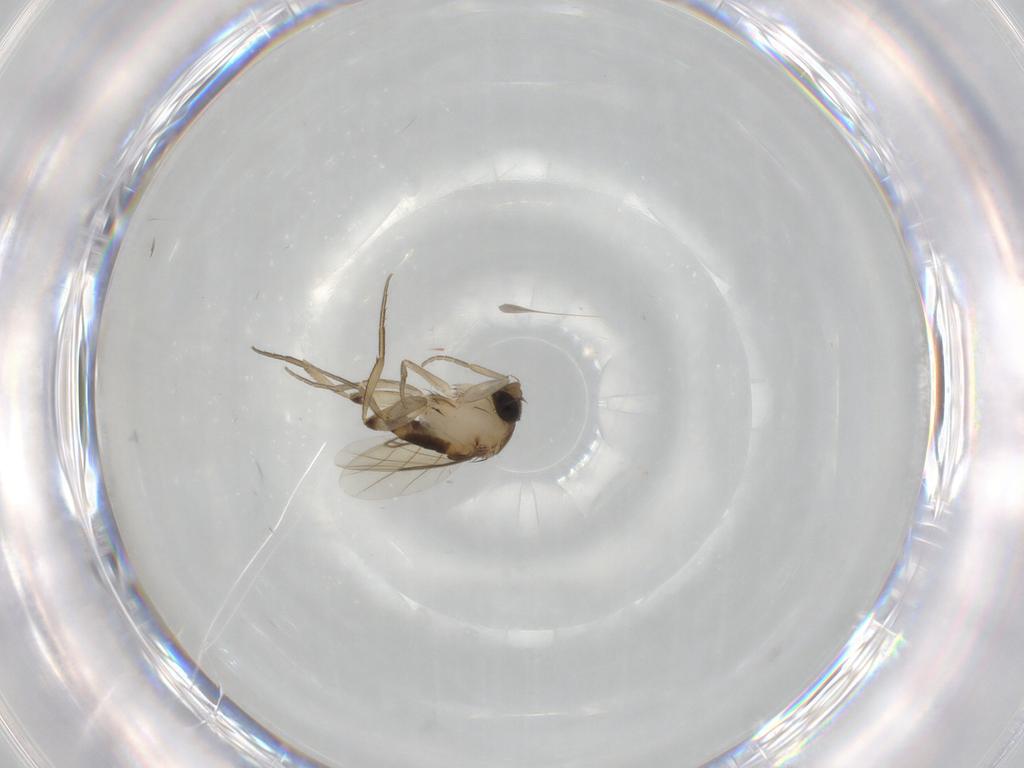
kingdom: Animalia
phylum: Arthropoda
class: Insecta
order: Diptera
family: Phoridae
